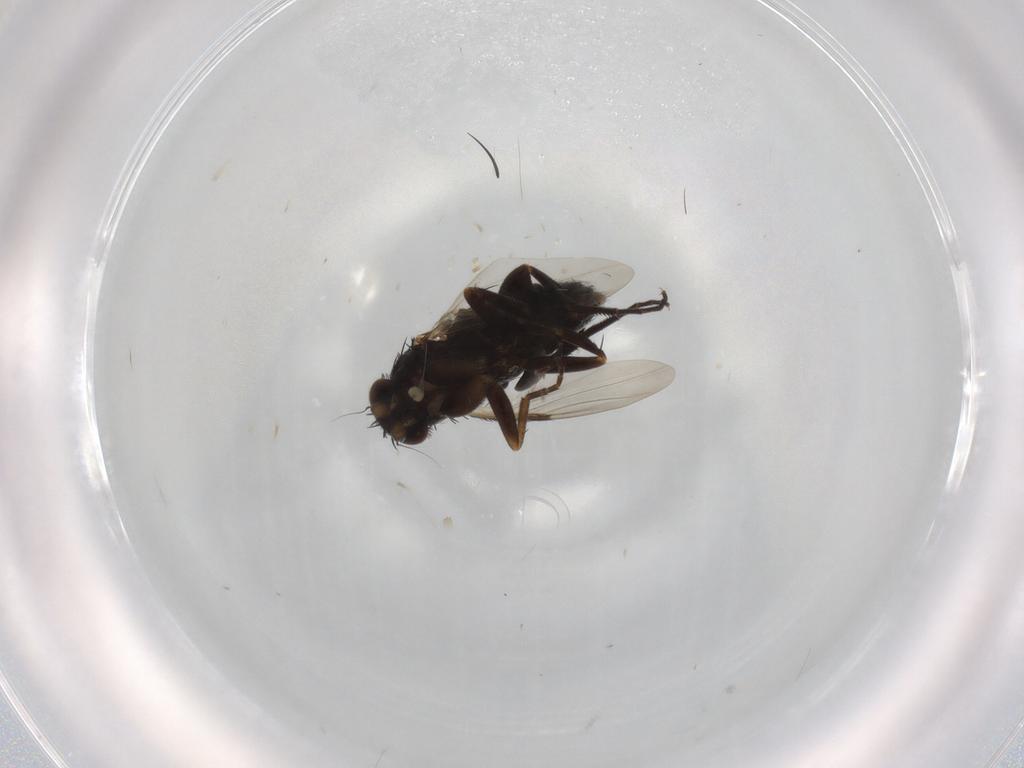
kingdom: Animalia
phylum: Arthropoda
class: Insecta
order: Diptera
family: Phoridae
